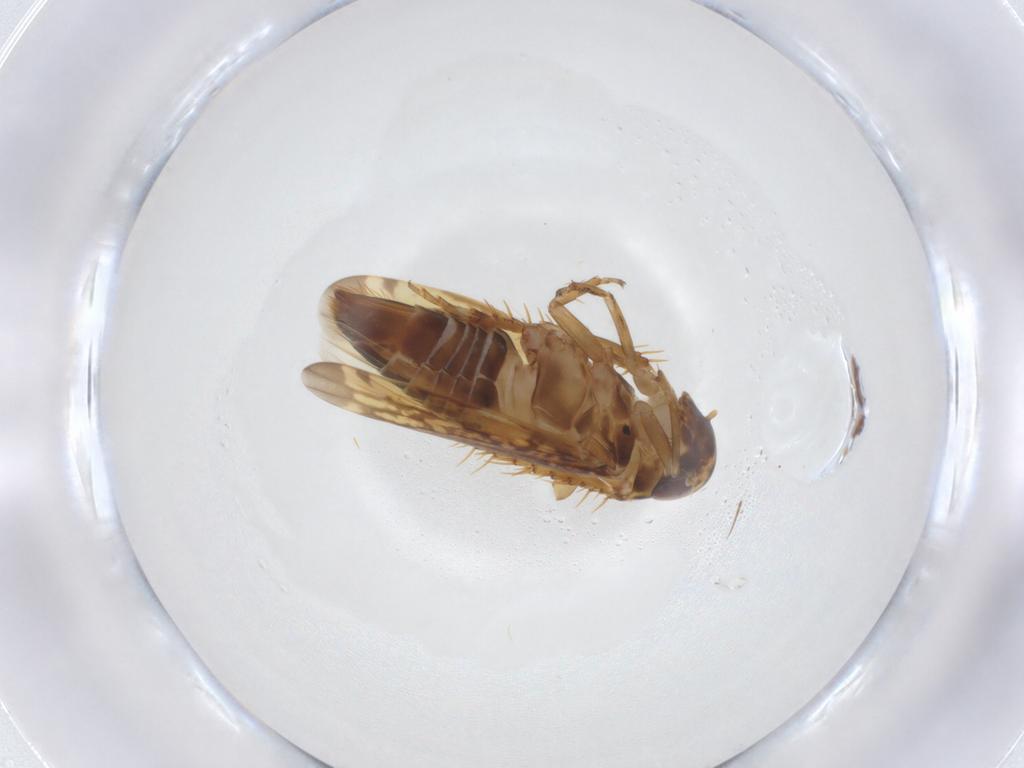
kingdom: Animalia
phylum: Arthropoda
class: Insecta
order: Hemiptera
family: Cicadellidae
